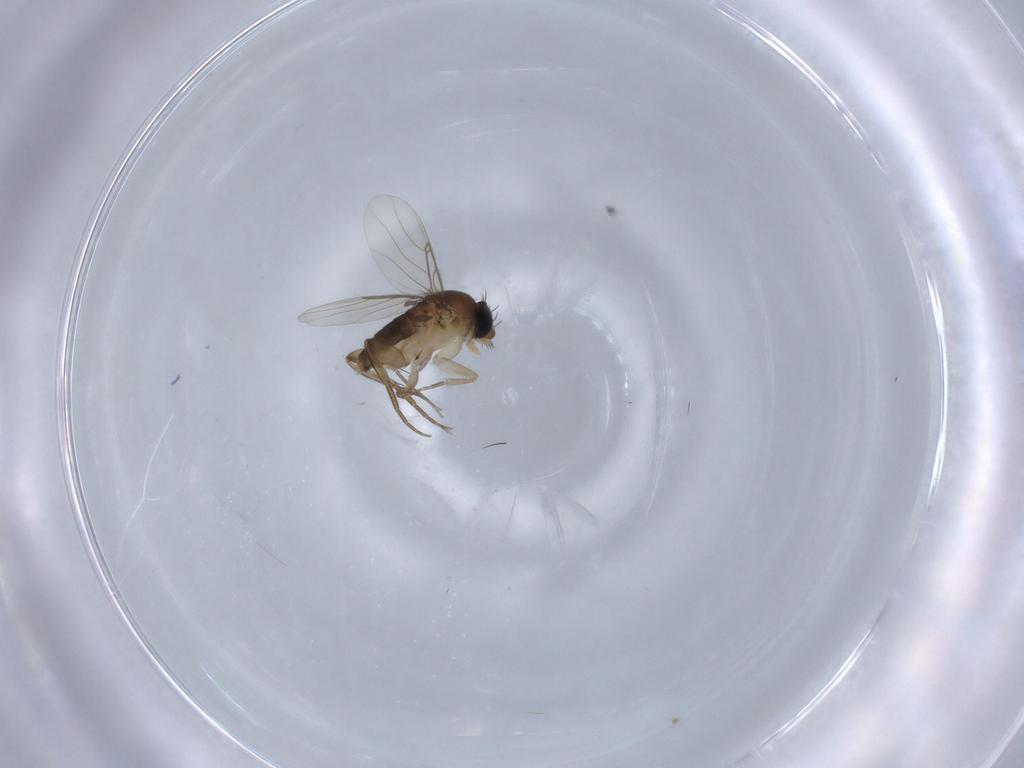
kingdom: Animalia
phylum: Arthropoda
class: Insecta
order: Diptera
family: Phoridae
